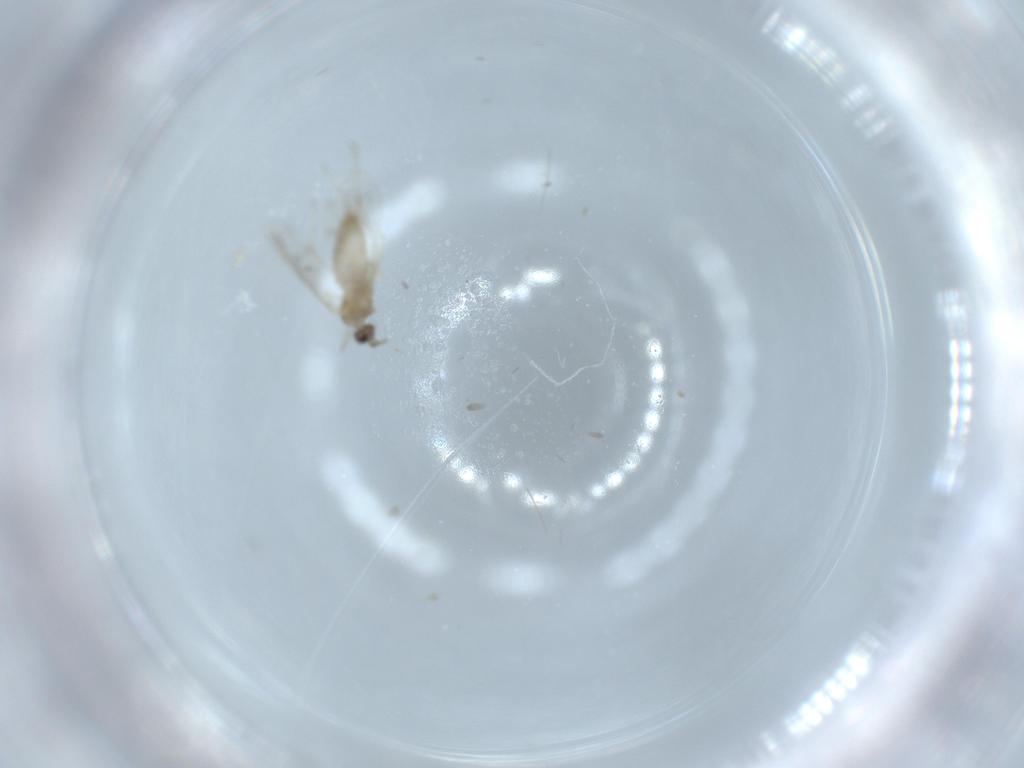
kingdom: Animalia
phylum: Arthropoda
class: Insecta
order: Diptera
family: Cecidomyiidae
